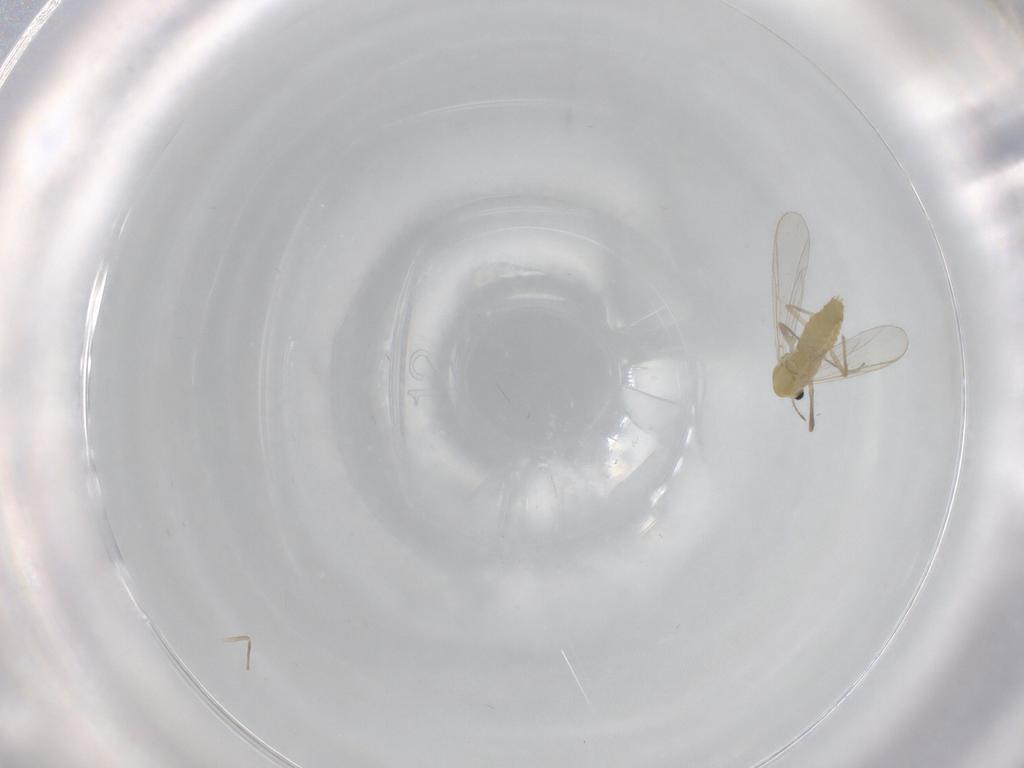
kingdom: Animalia
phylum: Arthropoda
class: Insecta
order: Diptera
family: Chironomidae
